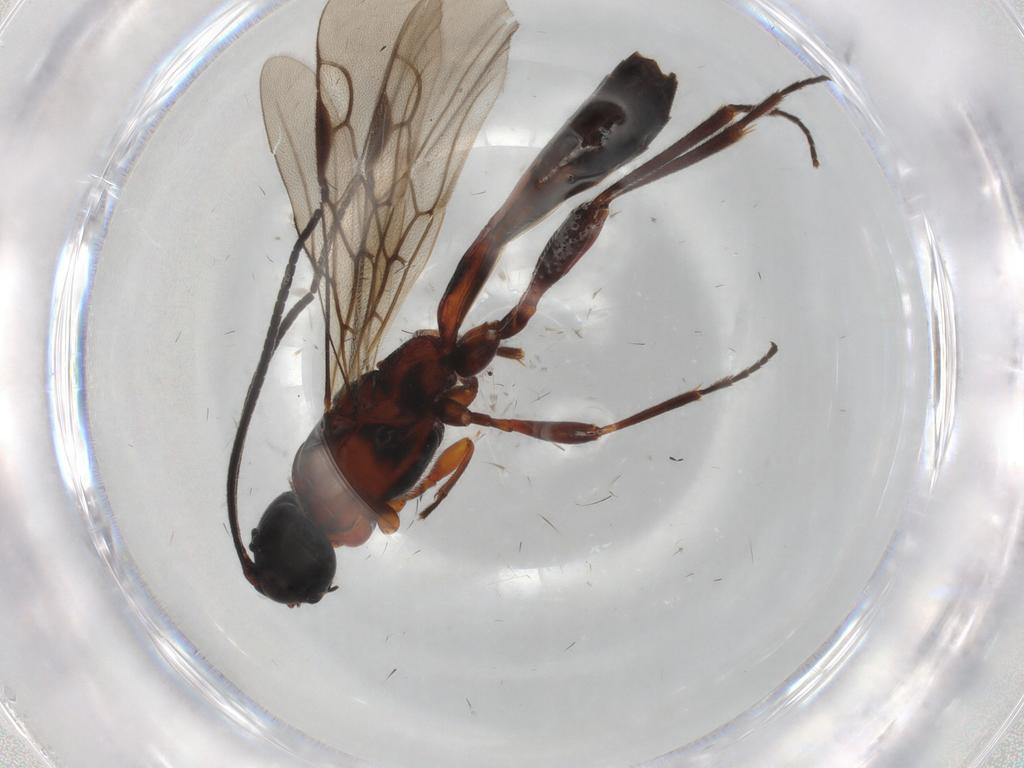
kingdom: Animalia
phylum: Arthropoda
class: Insecta
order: Hymenoptera
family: Braconidae
